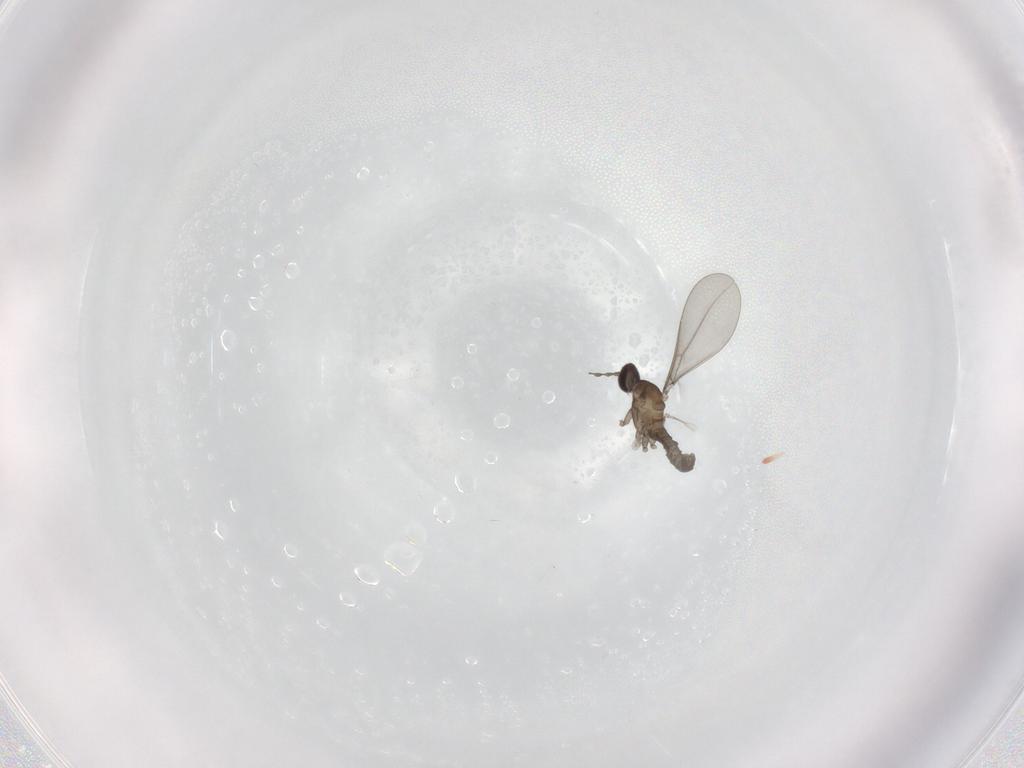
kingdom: Animalia
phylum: Arthropoda
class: Insecta
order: Diptera
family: Cecidomyiidae
